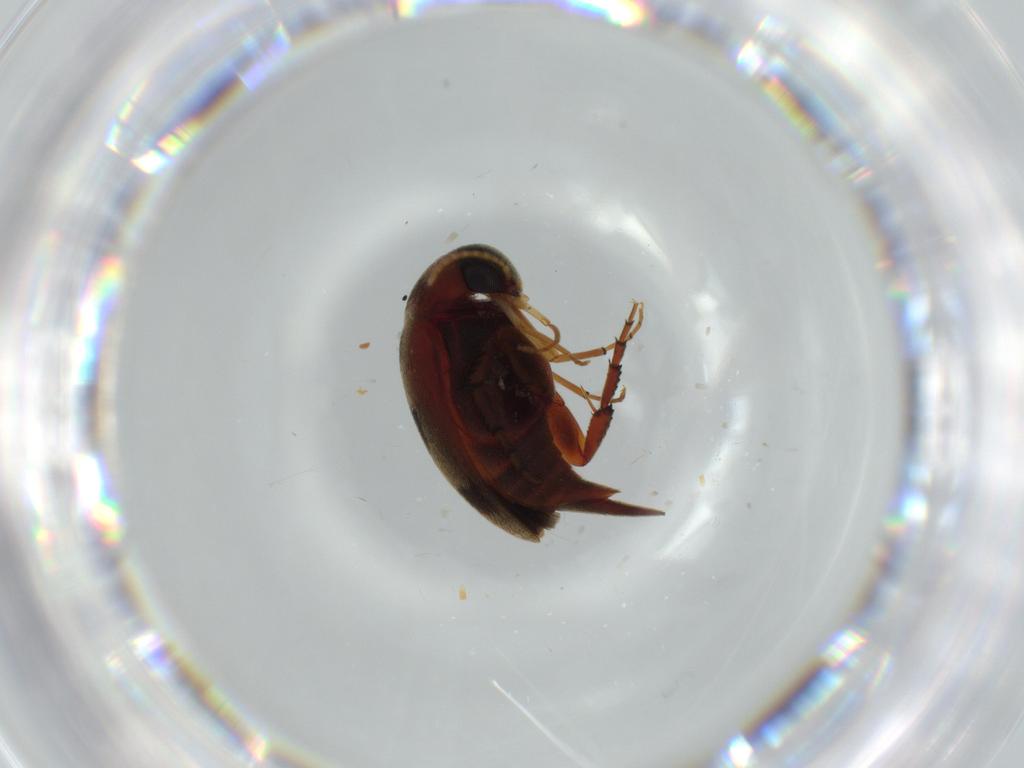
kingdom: Animalia
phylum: Arthropoda
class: Insecta
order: Coleoptera
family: Mordellidae
